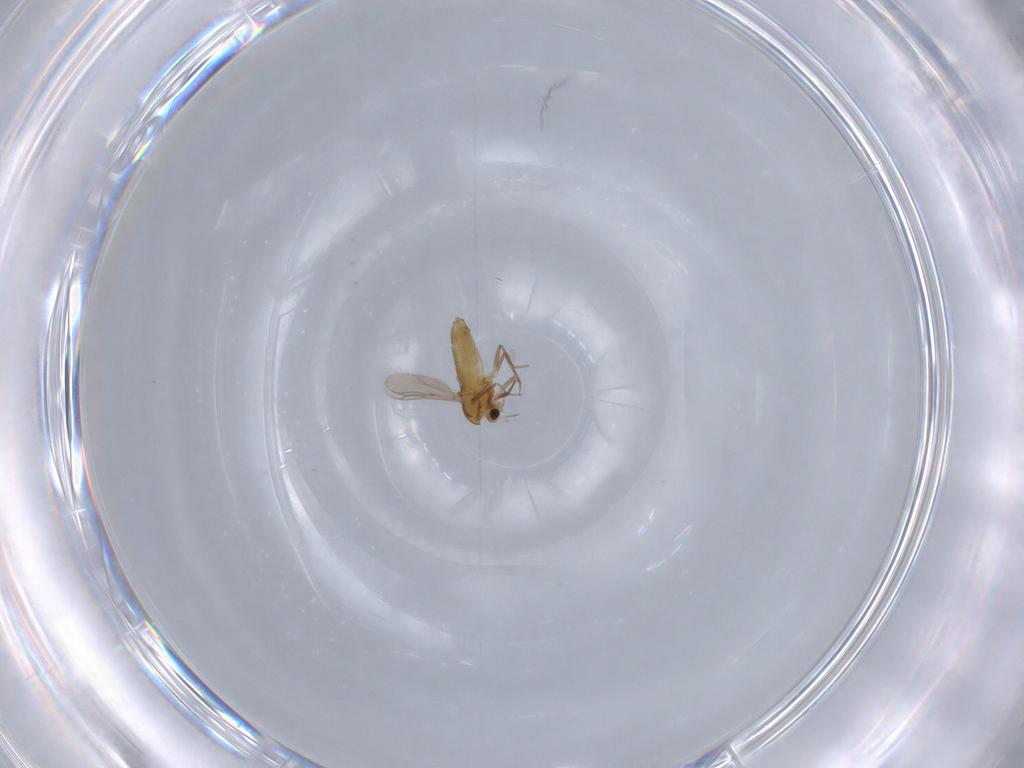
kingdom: Animalia
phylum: Arthropoda
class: Insecta
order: Diptera
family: Chironomidae
